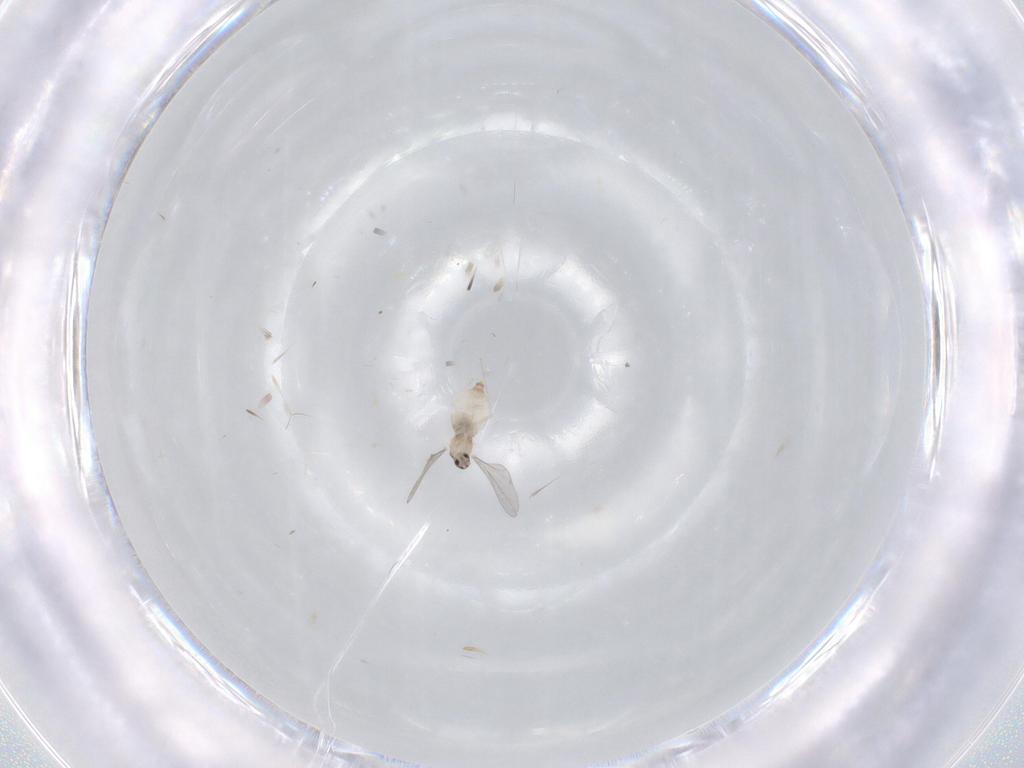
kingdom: Animalia
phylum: Arthropoda
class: Insecta
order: Diptera
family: Cecidomyiidae
